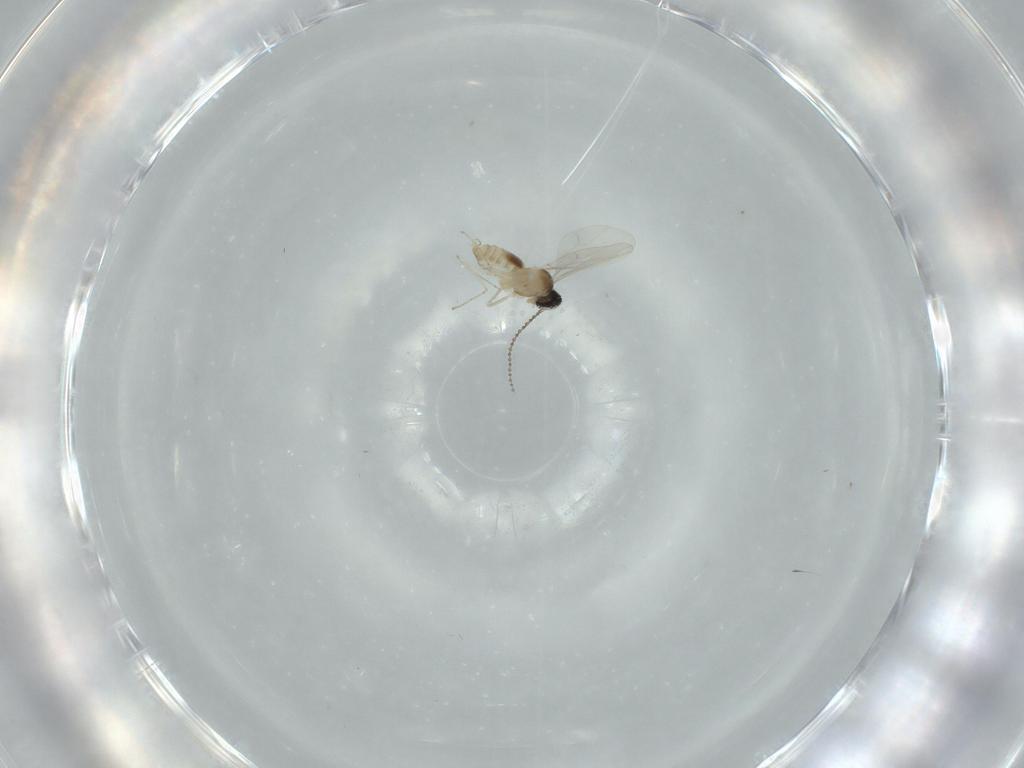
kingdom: Animalia
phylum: Arthropoda
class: Insecta
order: Diptera
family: Cecidomyiidae
